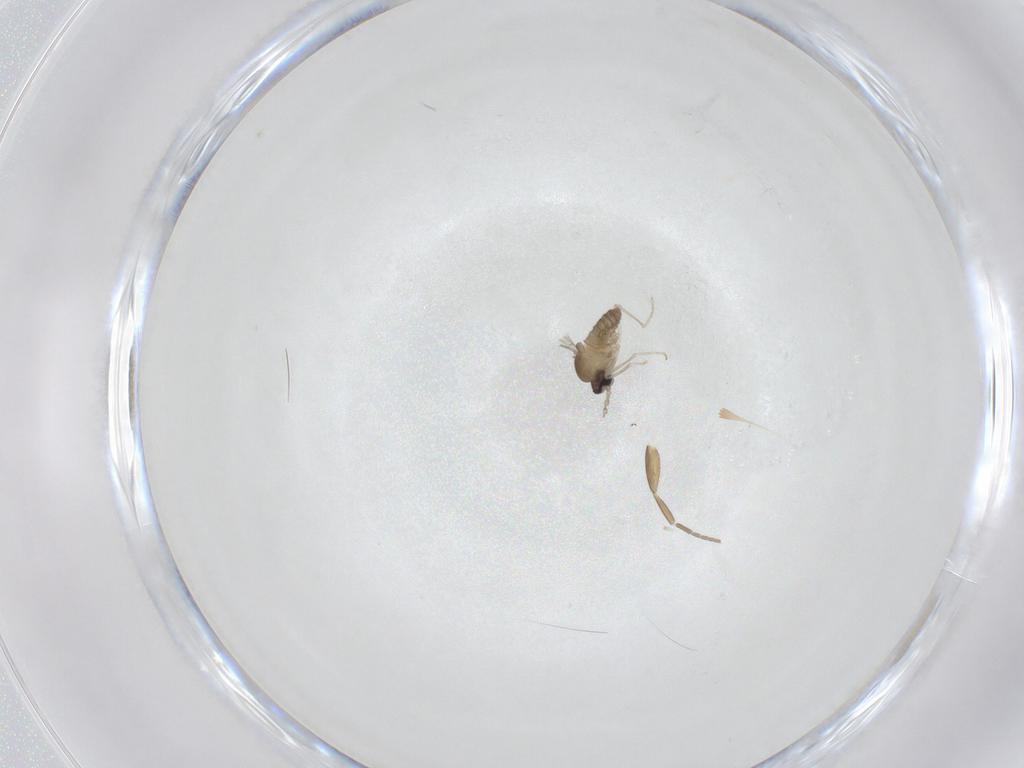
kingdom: Animalia
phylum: Arthropoda
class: Insecta
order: Diptera
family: Cecidomyiidae
